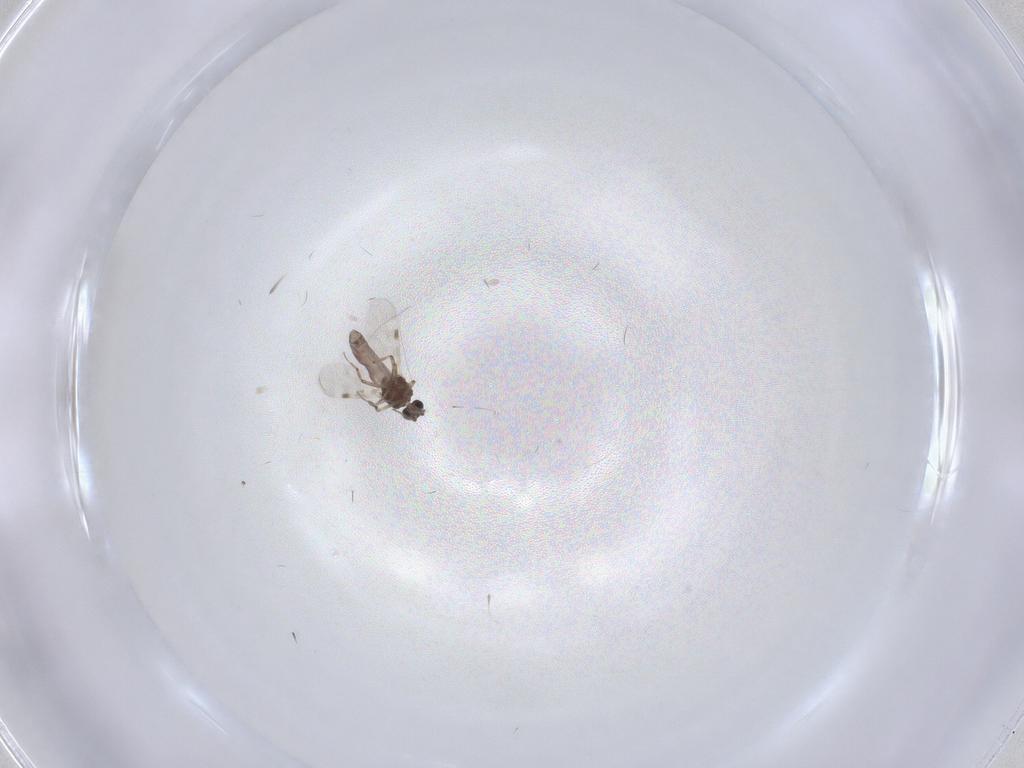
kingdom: Animalia
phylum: Arthropoda
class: Insecta
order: Diptera
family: Psychodidae
